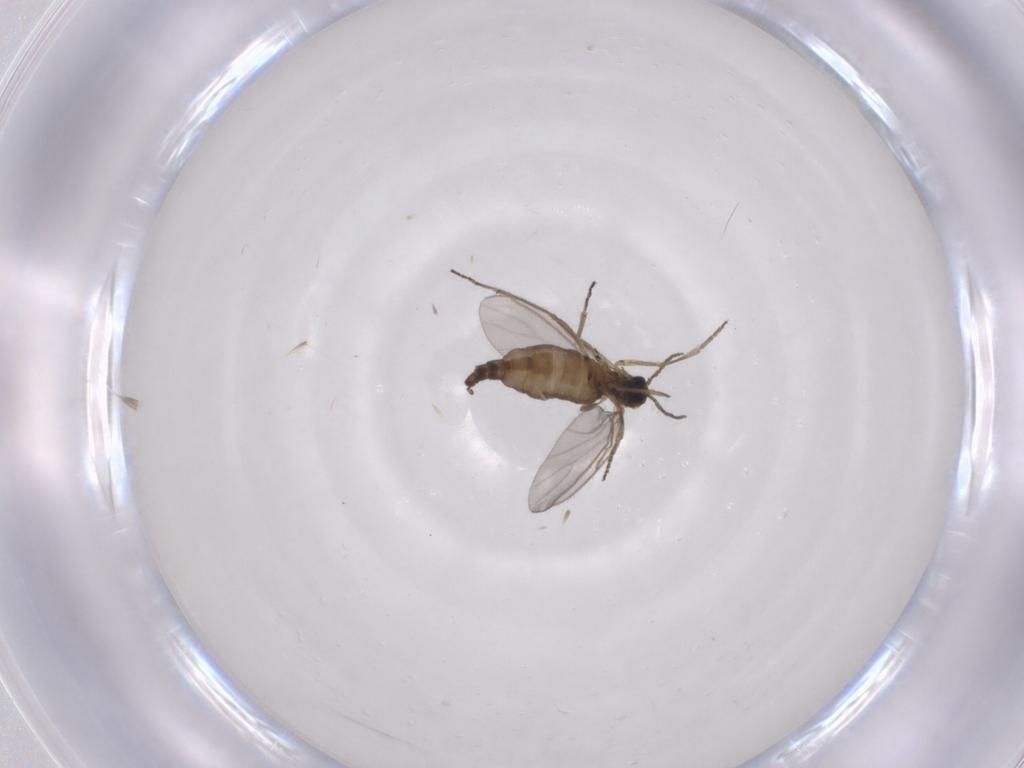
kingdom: Animalia
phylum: Arthropoda
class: Insecta
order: Diptera
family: Sciaridae
